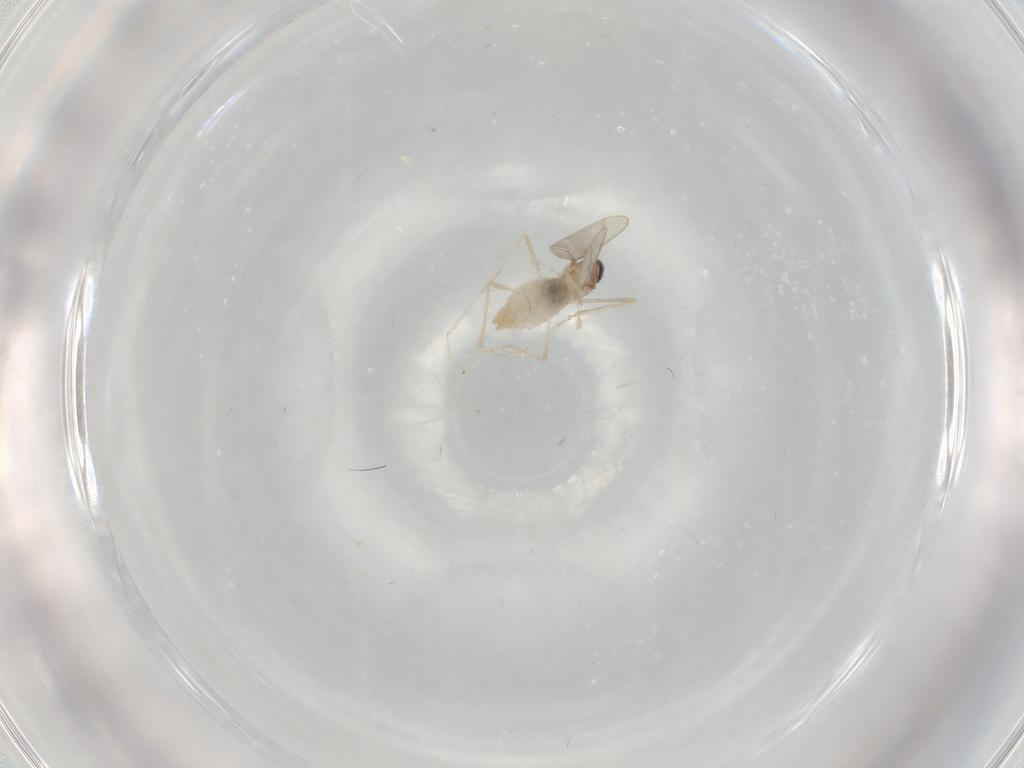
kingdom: Animalia
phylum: Arthropoda
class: Insecta
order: Diptera
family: Cecidomyiidae
